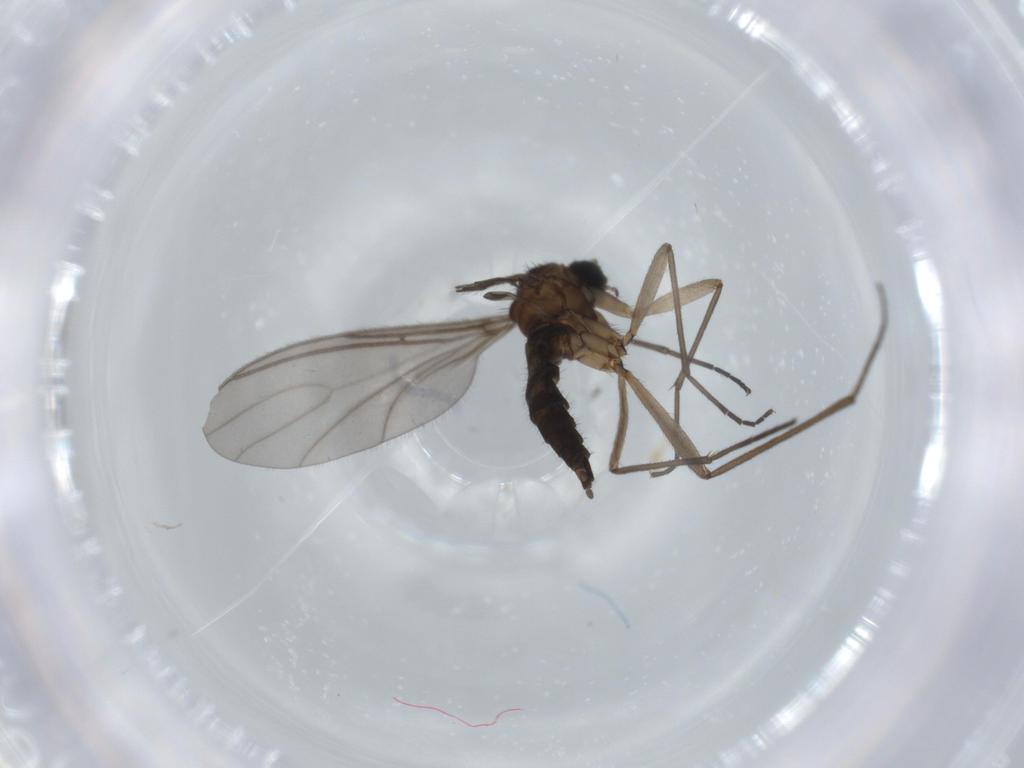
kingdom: Animalia
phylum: Arthropoda
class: Insecta
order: Diptera
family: Sciaridae
